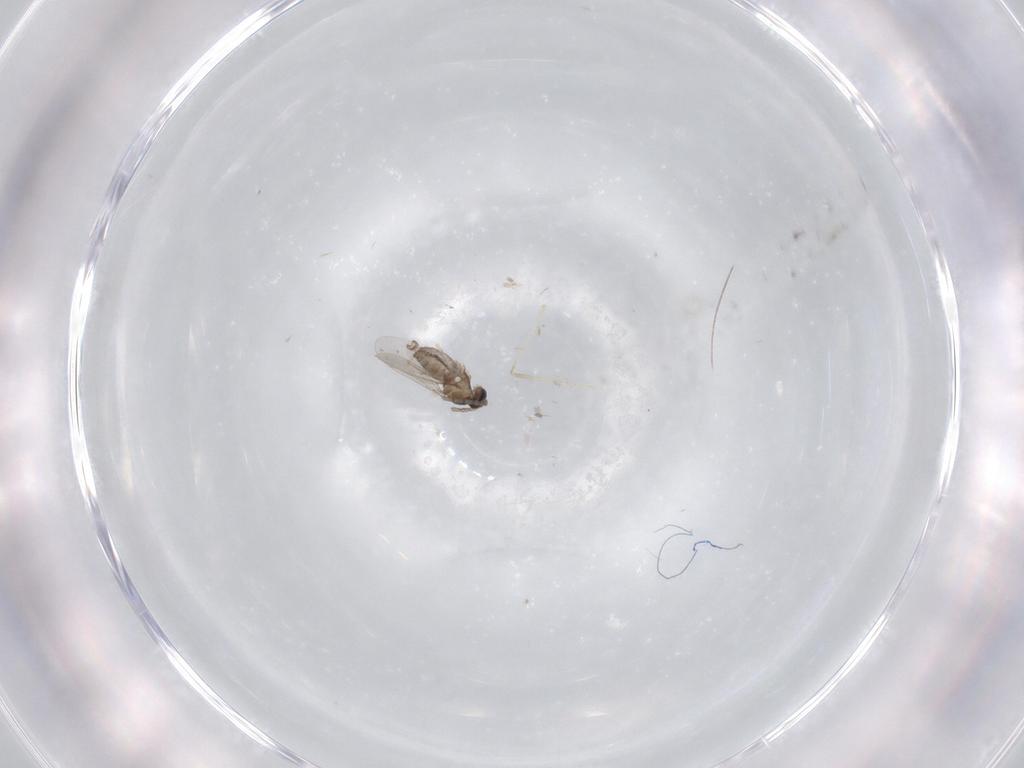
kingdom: Animalia
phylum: Arthropoda
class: Insecta
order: Diptera
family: Cecidomyiidae
